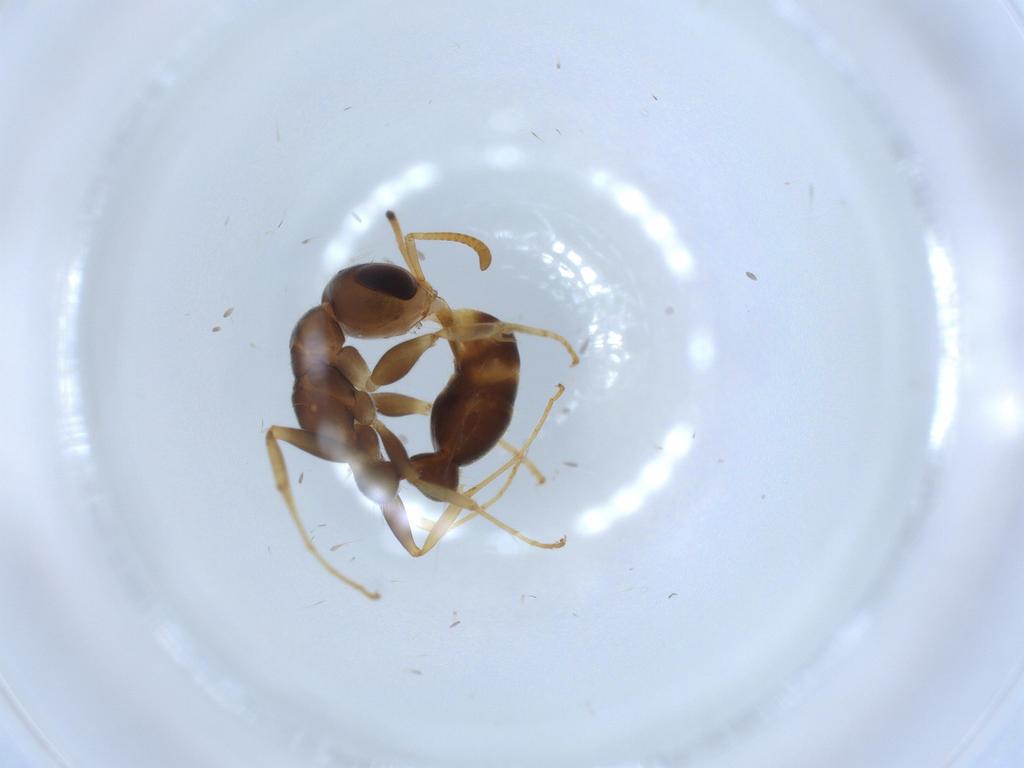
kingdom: Animalia
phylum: Arthropoda
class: Insecta
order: Hymenoptera
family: Formicidae
